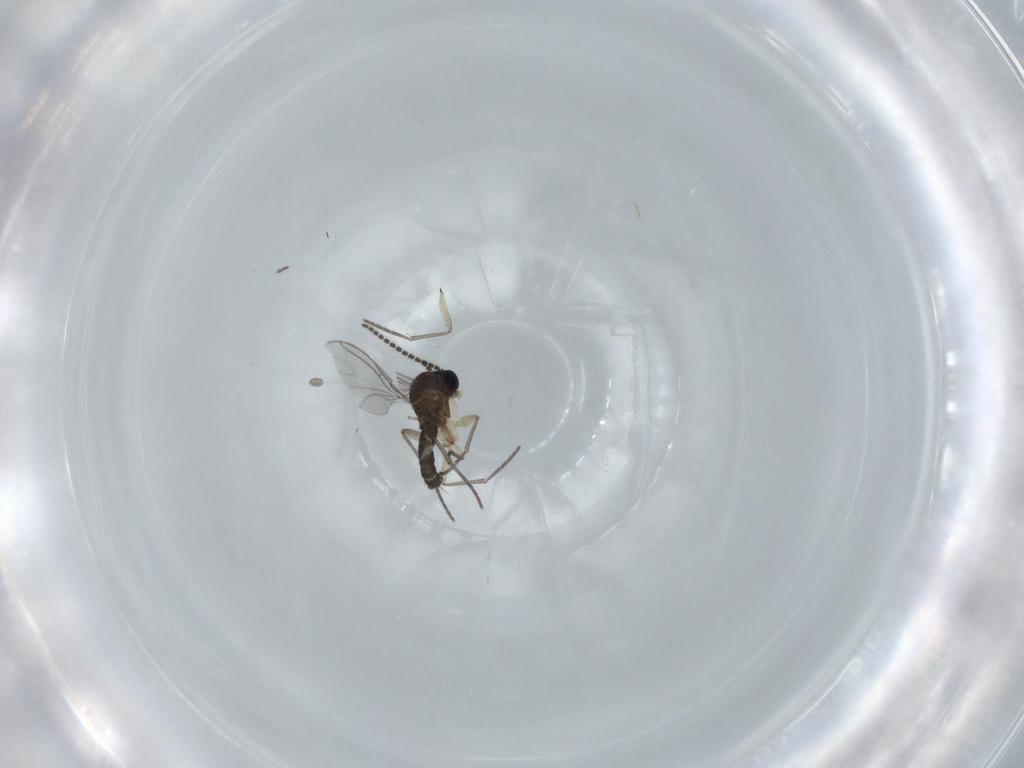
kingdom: Animalia
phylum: Arthropoda
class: Insecta
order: Diptera
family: Sciaridae
